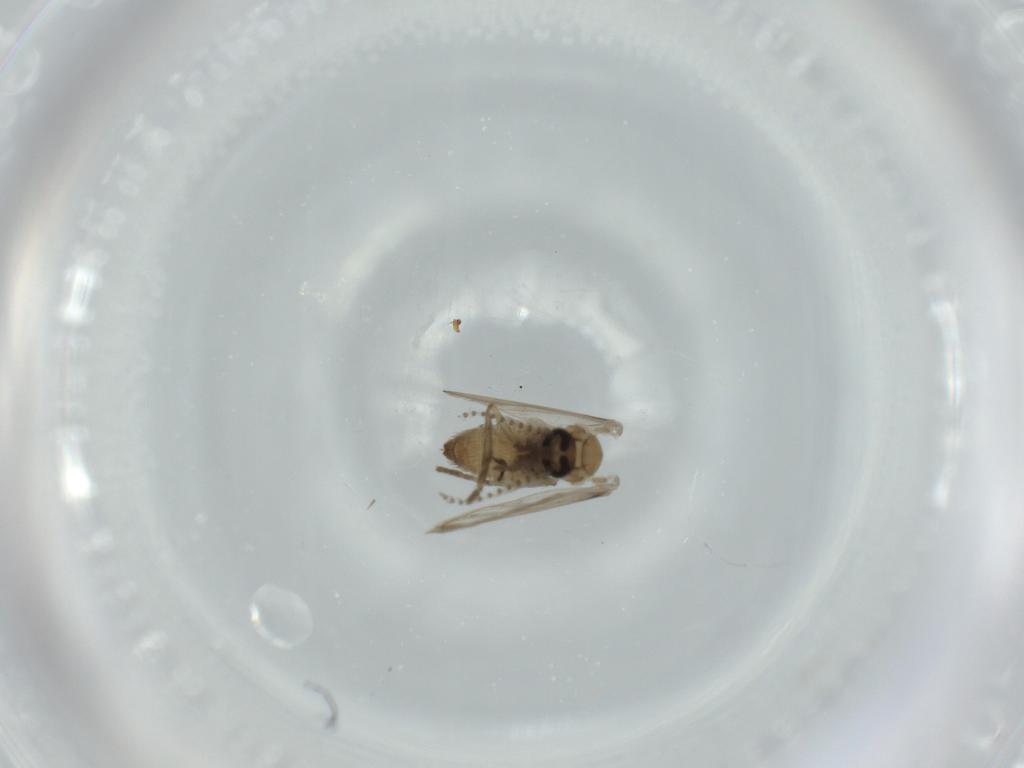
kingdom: Animalia
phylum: Arthropoda
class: Insecta
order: Diptera
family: Psychodidae
